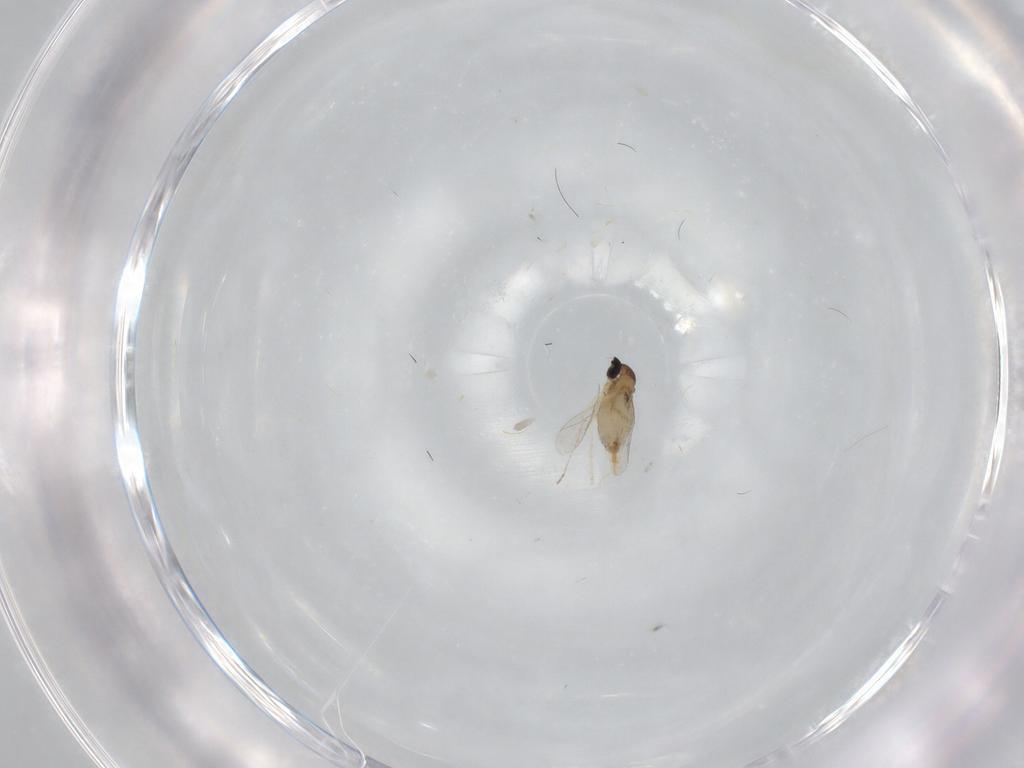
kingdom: Animalia
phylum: Arthropoda
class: Insecta
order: Diptera
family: Cecidomyiidae
